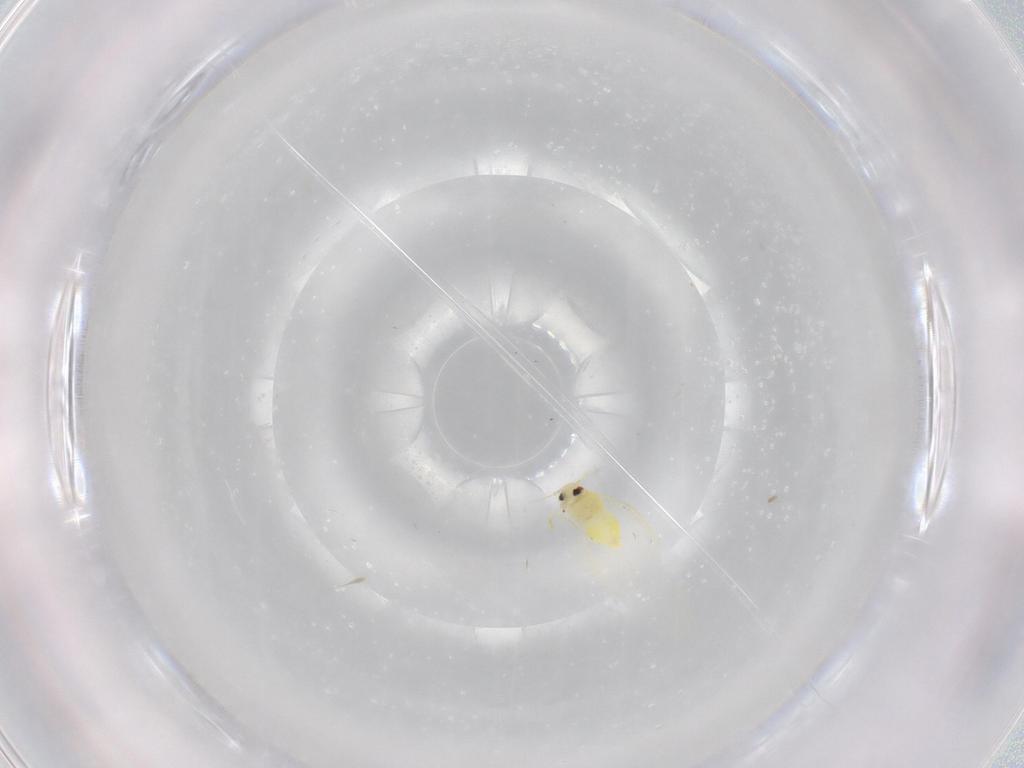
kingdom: Animalia
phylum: Arthropoda
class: Insecta
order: Hemiptera
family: Aleyrodidae
